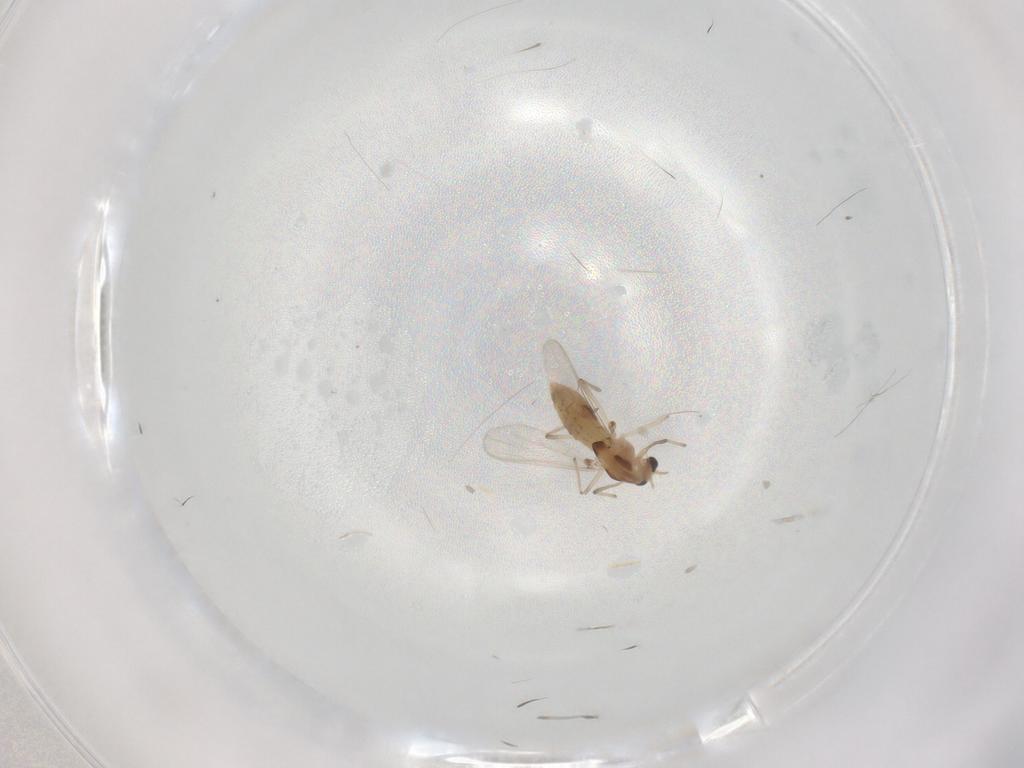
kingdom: Animalia
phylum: Arthropoda
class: Insecta
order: Diptera
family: Chironomidae
